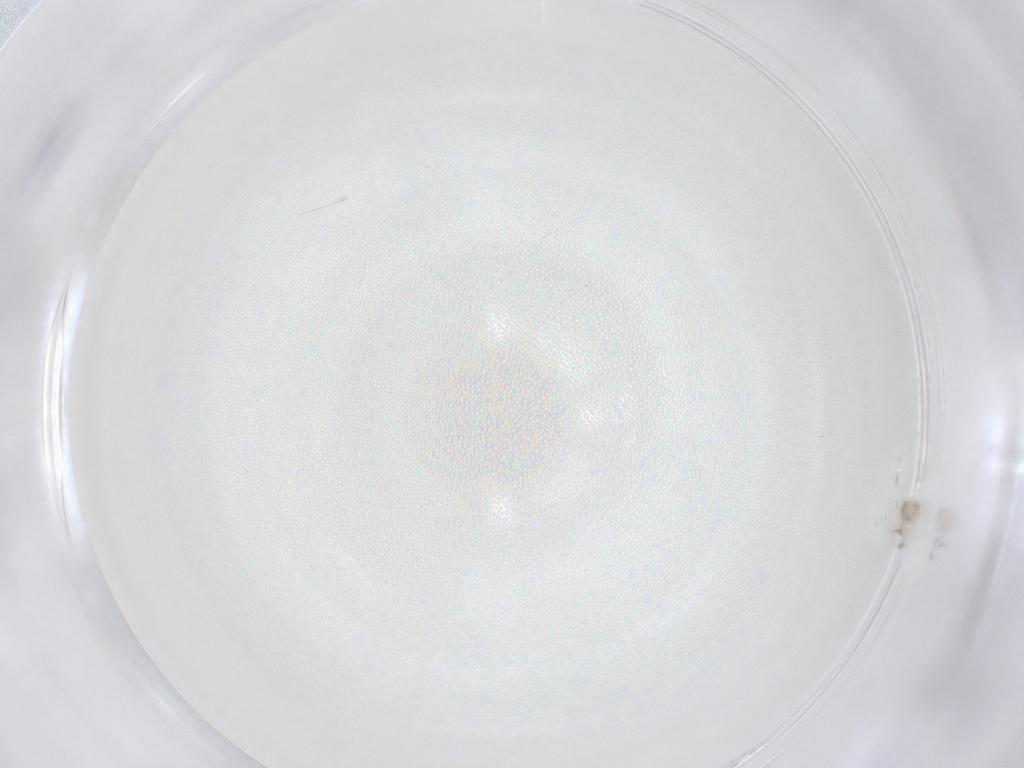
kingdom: Animalia
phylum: Arthropoda
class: Insecta
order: Hymenoptera
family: Mymaridae
